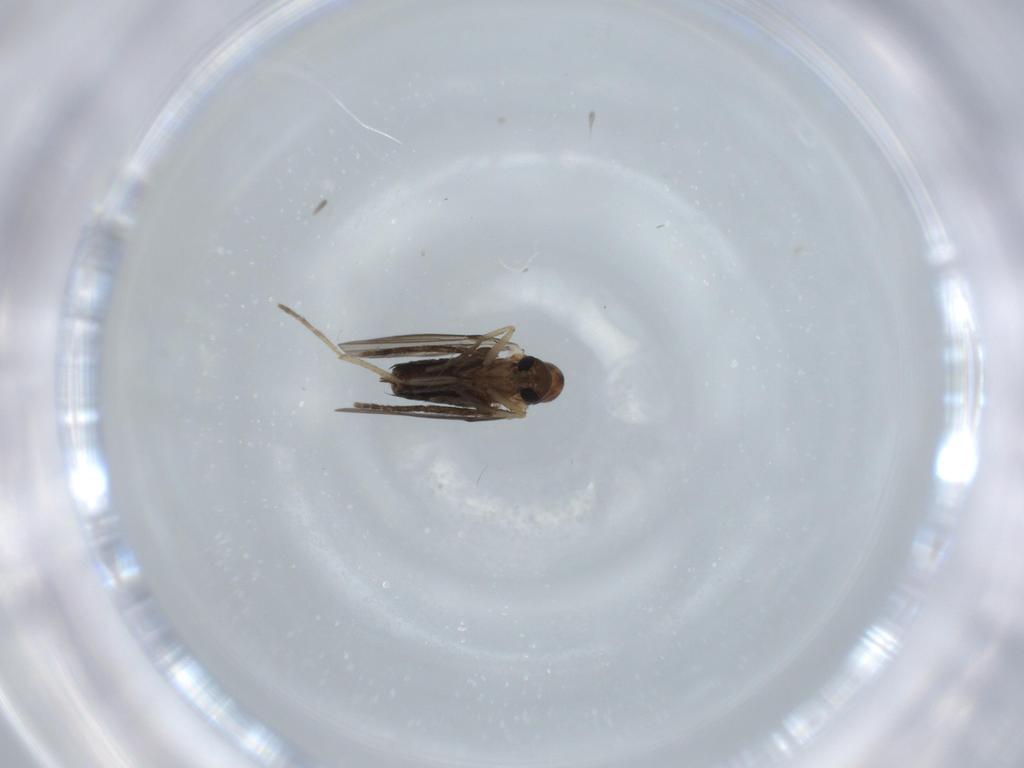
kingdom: Animalia
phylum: Arthropoda
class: Insecta
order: Diptera
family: Psychodidae
